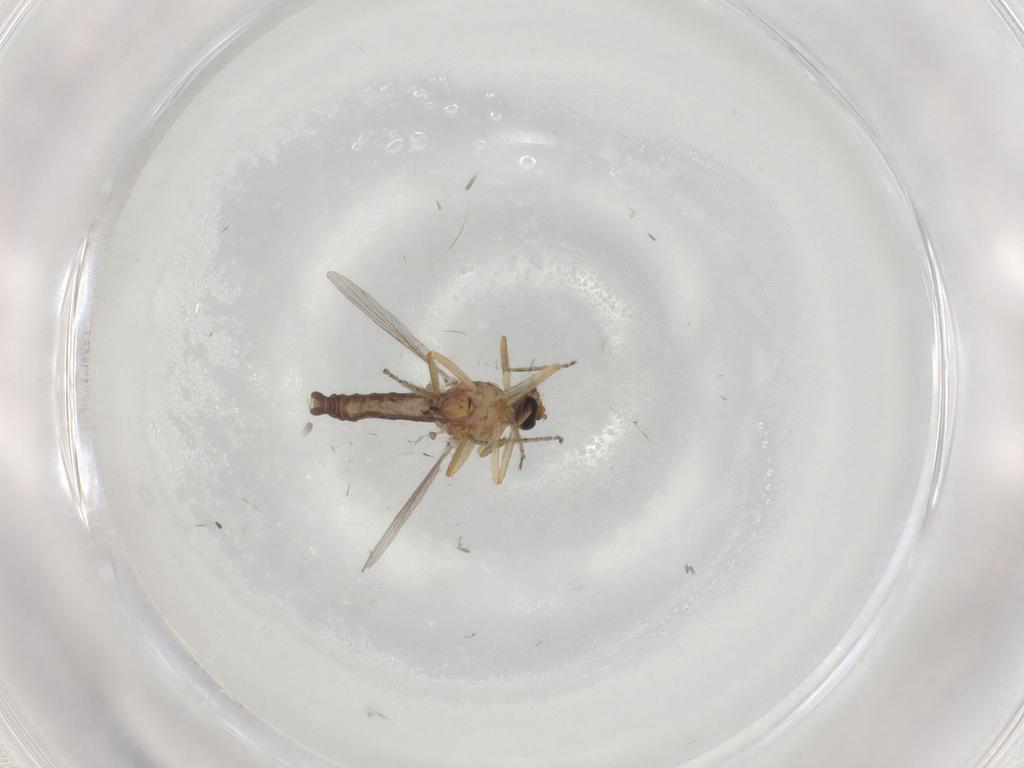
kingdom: Animalia
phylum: Arthropoda
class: Insecta
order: Diptera
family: Ceratopogonidae
